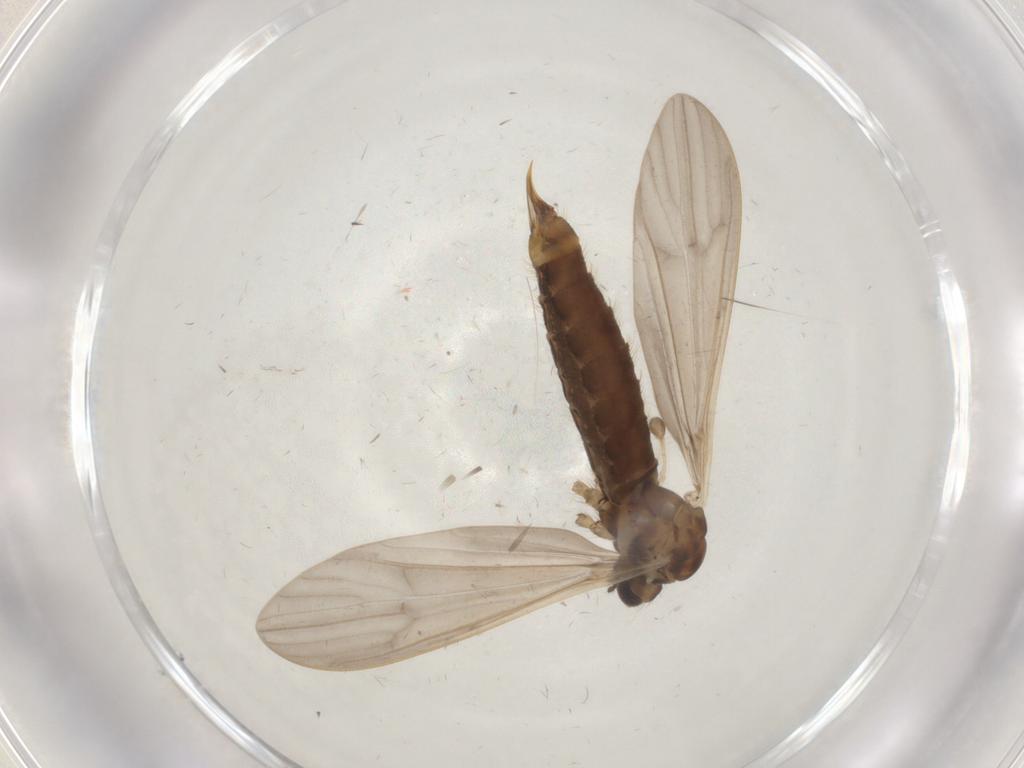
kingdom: Animalia
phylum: Arthropoda
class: Insecta
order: Diptera
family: Limoniidae
